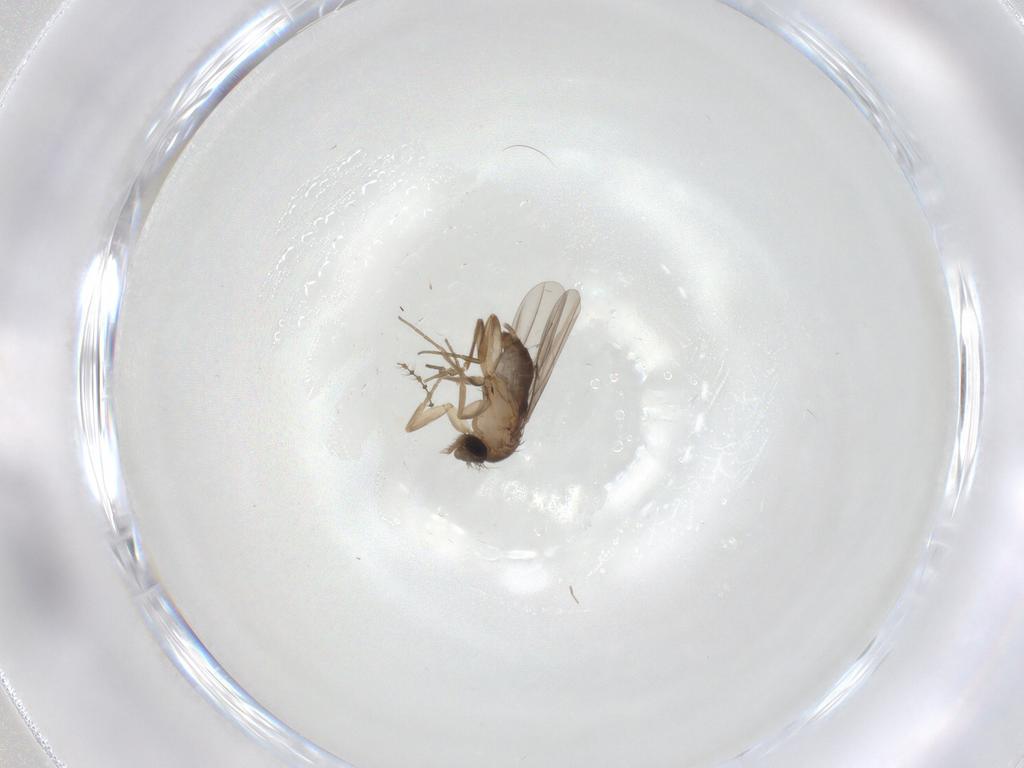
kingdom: Animalia
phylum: Arthropoda
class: Insecta
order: Diptera
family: Phoridae
